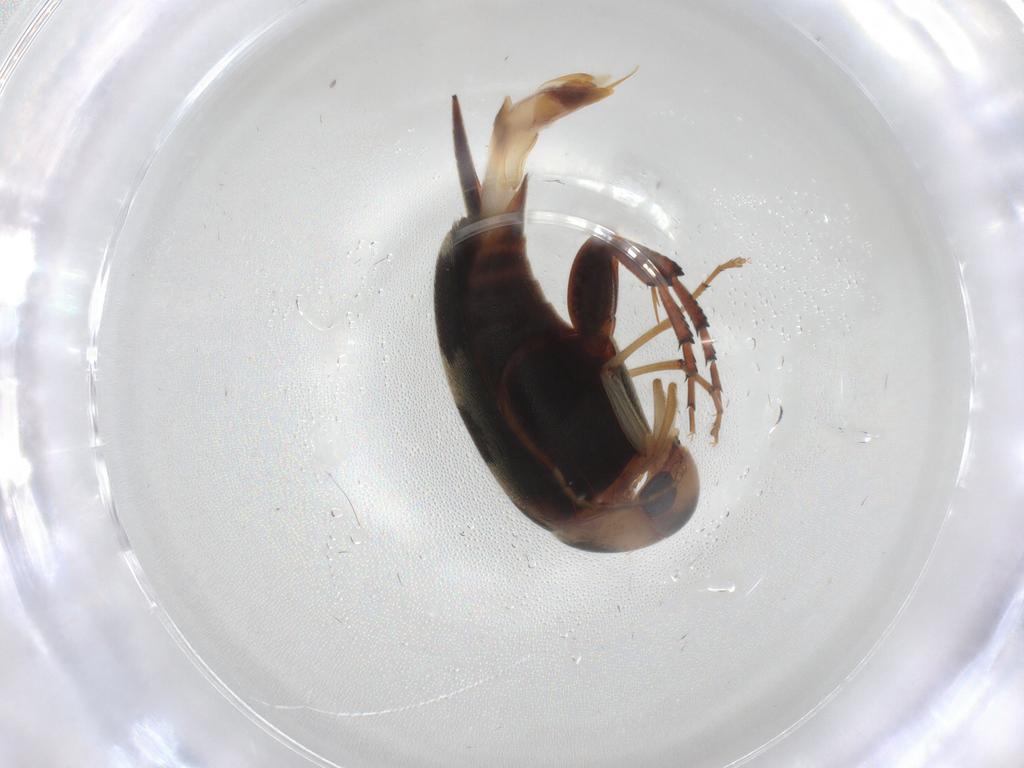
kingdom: Animalia
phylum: Arthropoda
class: Insecta
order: Coleoptera
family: Mordellidae
